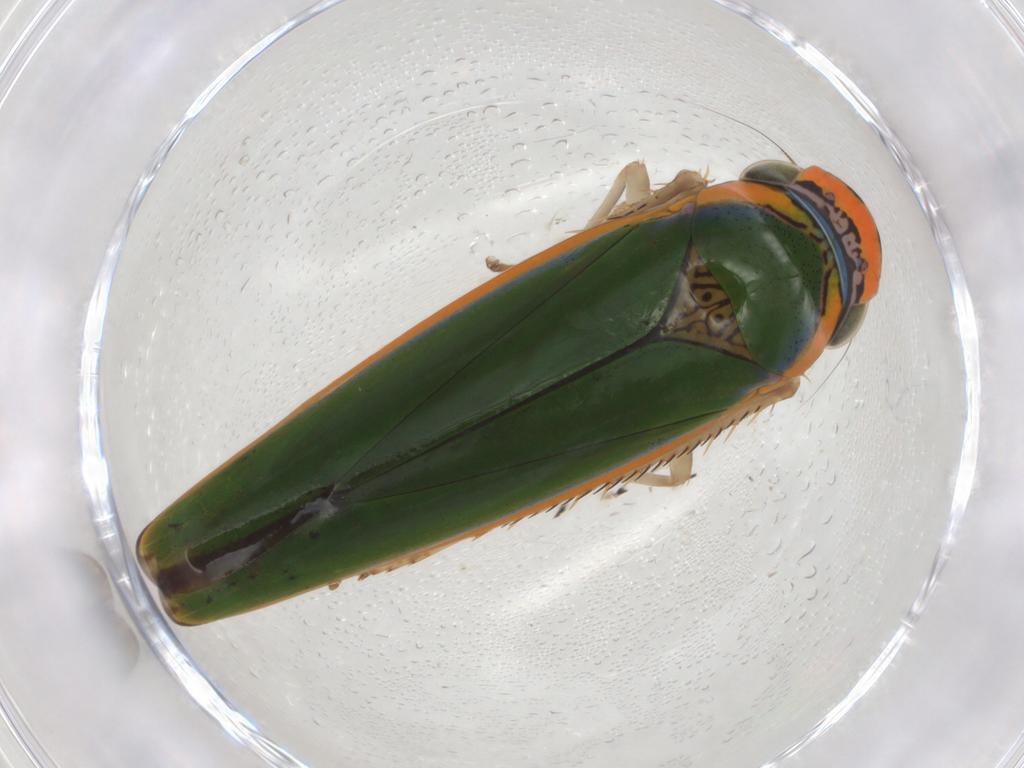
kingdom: Animalia
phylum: Arthropoda
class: Insecta
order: Hemiptera
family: Cicadellidae
